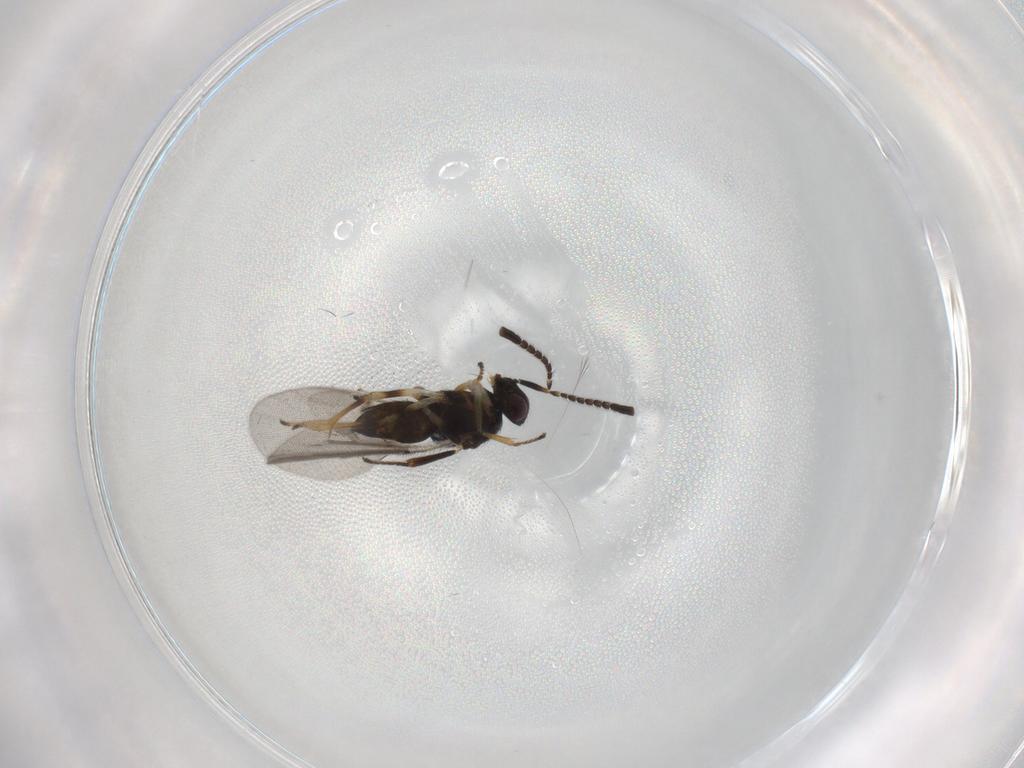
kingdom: Animalia
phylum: Arthropoda
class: Insecta
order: Hymenoptera
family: Encyrtidae
